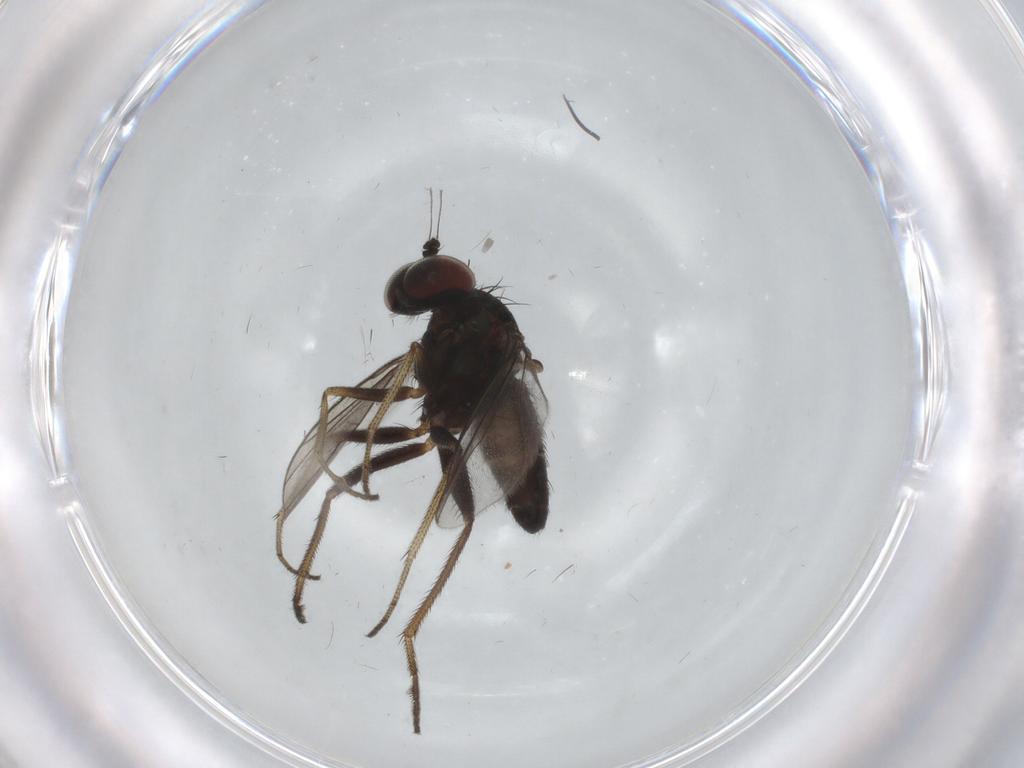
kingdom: Animalia
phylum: Arthropoda
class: Insecta
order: Diptera
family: Dolichopodidae
